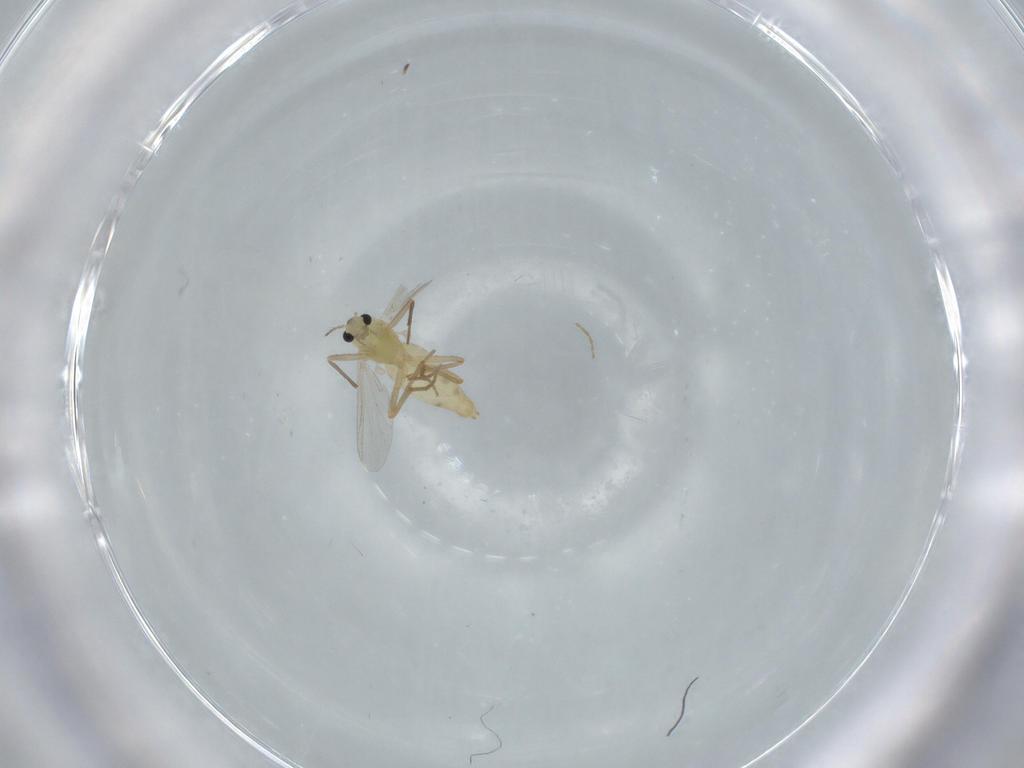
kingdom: Animalia
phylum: Arthropoda
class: Insecta
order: Diptera
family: Chironomidae
